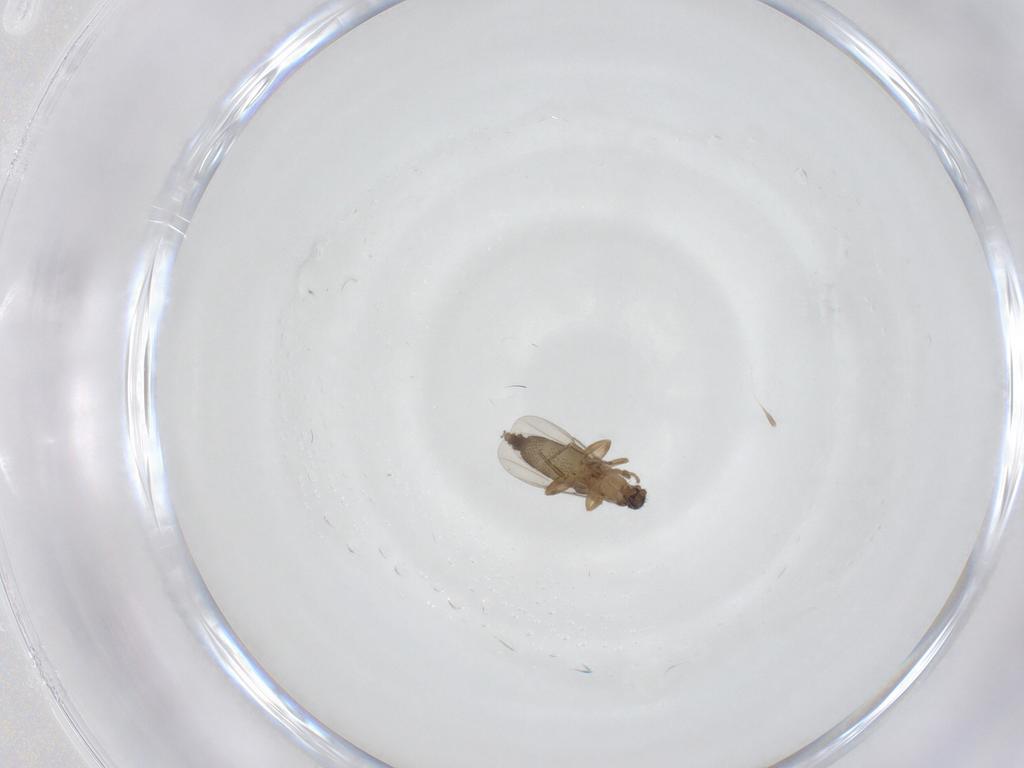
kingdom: Animalia
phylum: Arthropoda
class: Insecta
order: Diptera
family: Phoridae
